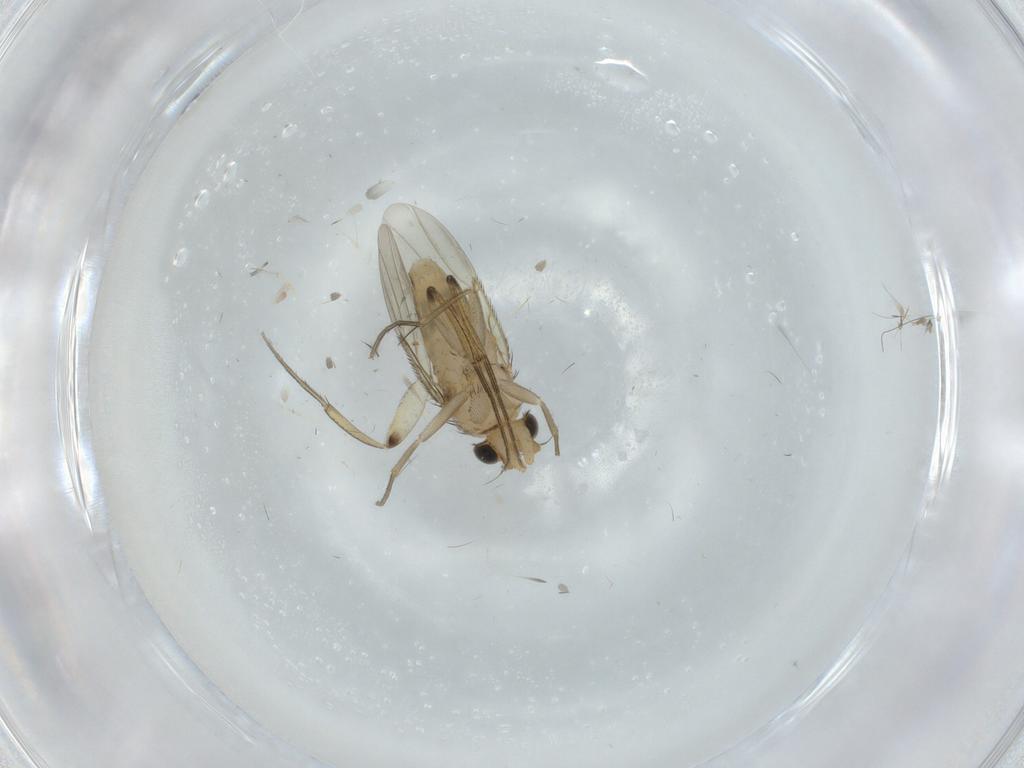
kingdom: Animalia
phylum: Arthropoda
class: Insecta
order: Diptera
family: Phoridae
